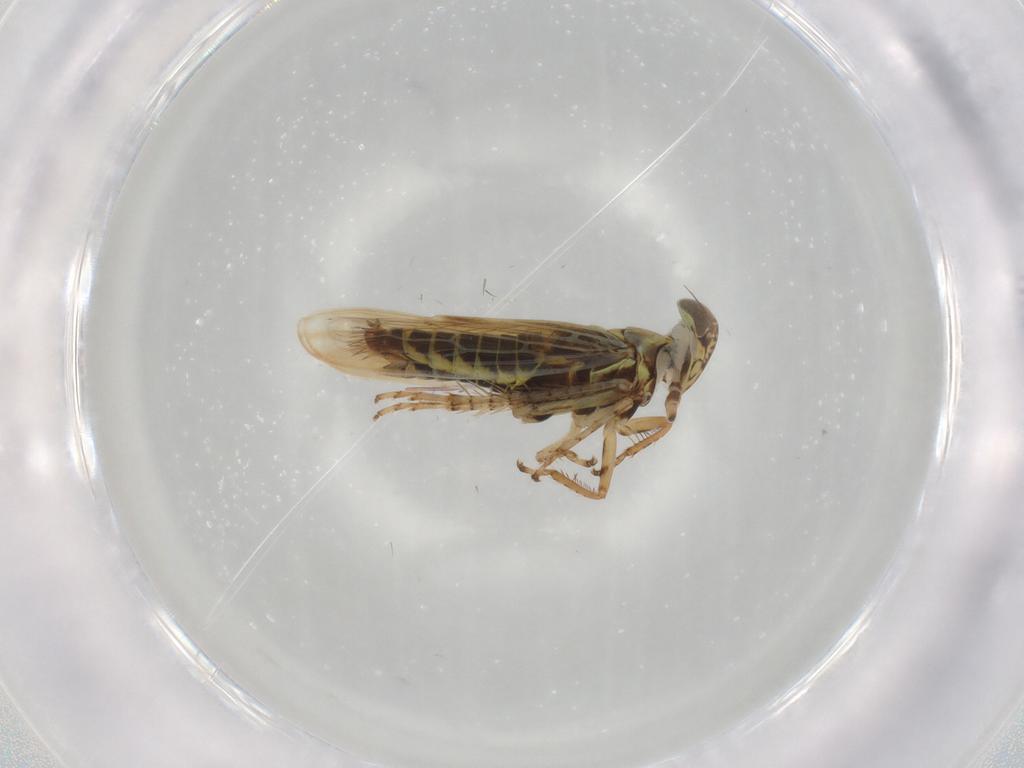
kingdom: Animalia
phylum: Arthropoda
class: Insecta
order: Hemiptera
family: Cicadellidae
